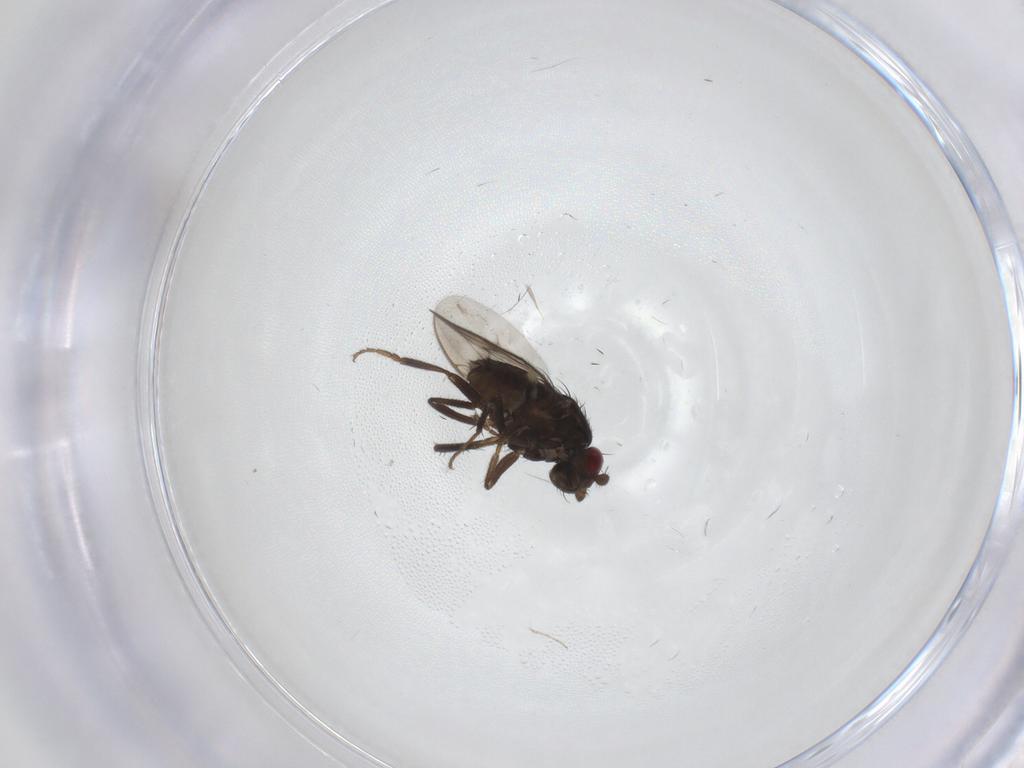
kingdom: Animalia
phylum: Arthropoda
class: Insecta
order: Diptera
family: Sphaeroceridae
